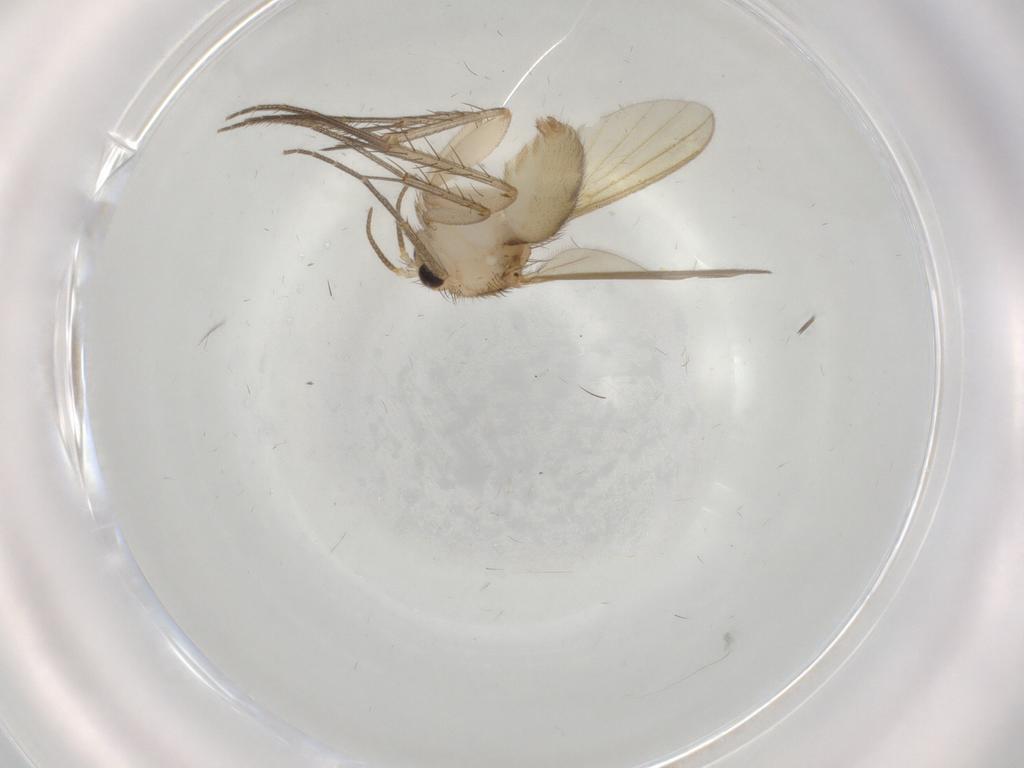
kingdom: Animalia
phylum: Arthropoda
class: Insecta
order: Diptera
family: Mycetophilidae
